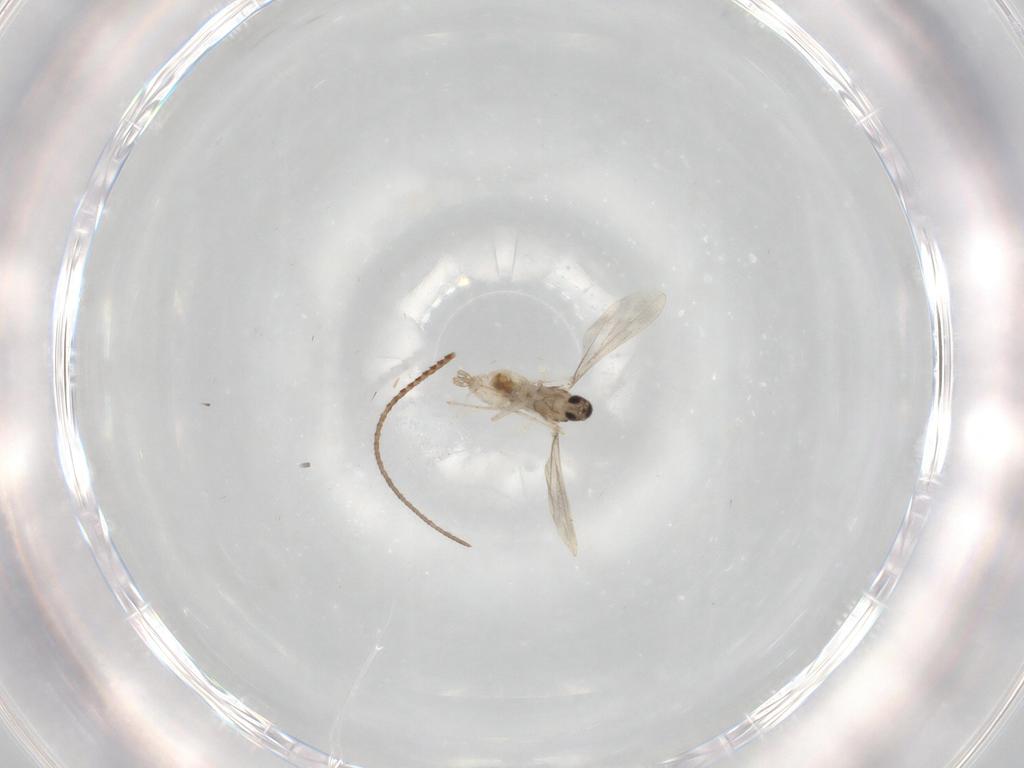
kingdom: Animalia
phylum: Arthropoda
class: Insecta
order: Diptera
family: Cecidomyiidae
